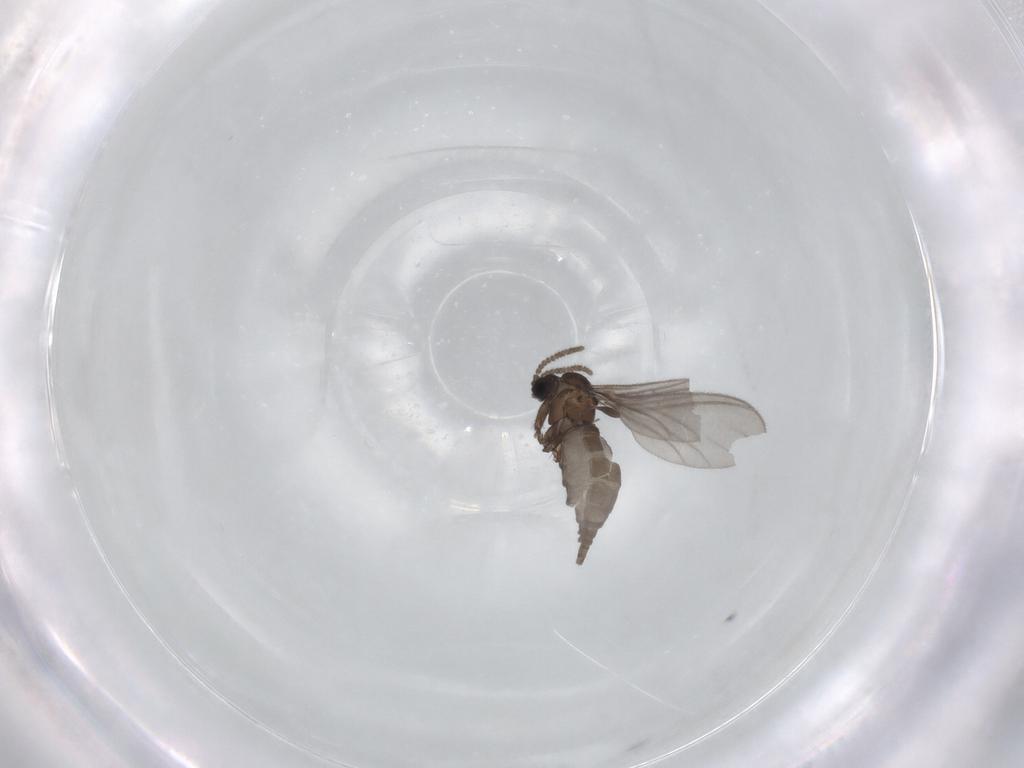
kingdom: Animalia
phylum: Arthropoda
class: Insecta
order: Diptera
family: Sciaridae
